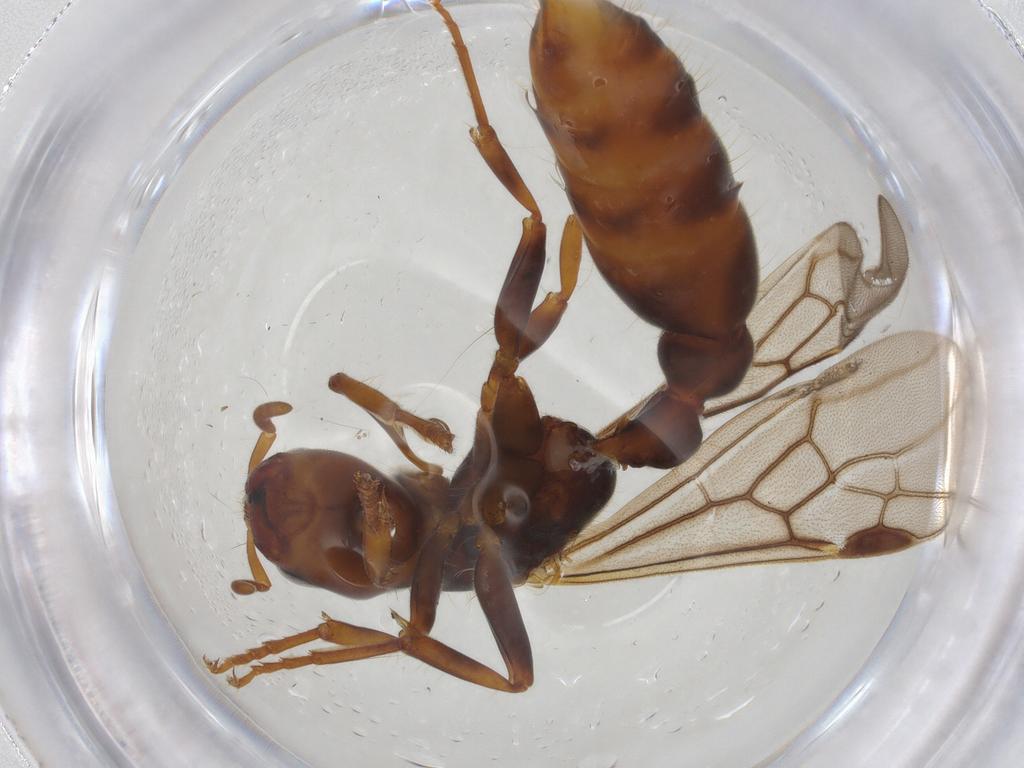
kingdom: Animalia
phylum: Arthropoda
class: Insecta
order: Hymenoptera
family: Formicidae
